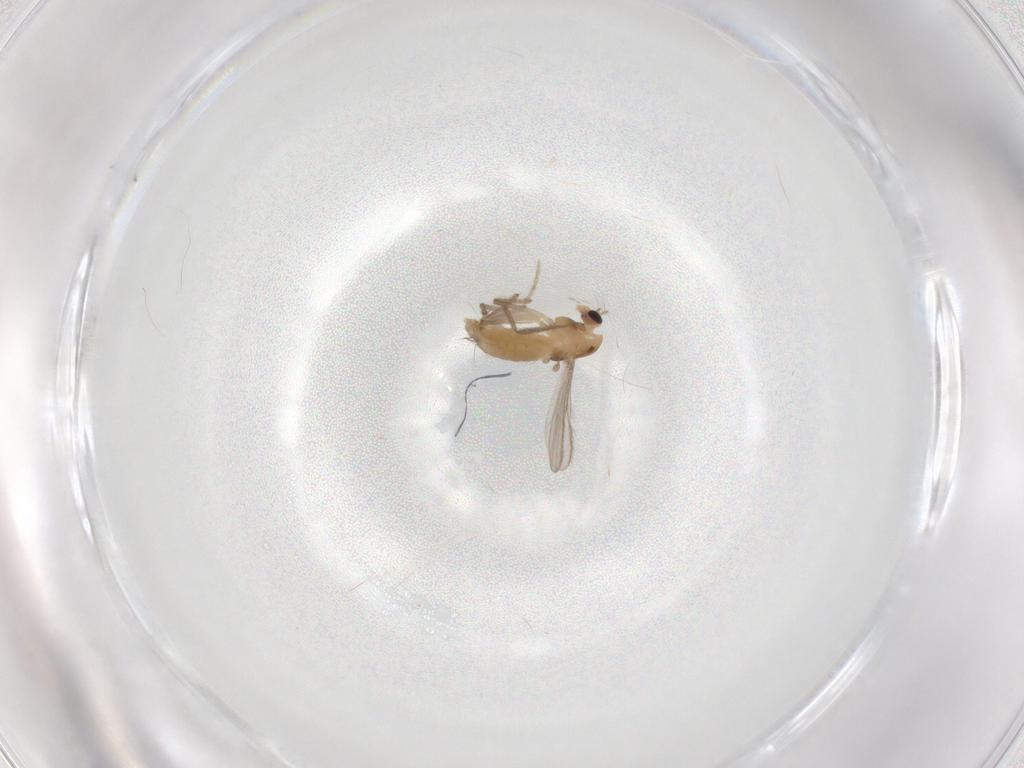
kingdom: Animalia
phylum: Arthropoda
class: Insecta
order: Diptera
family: Chironomidae
